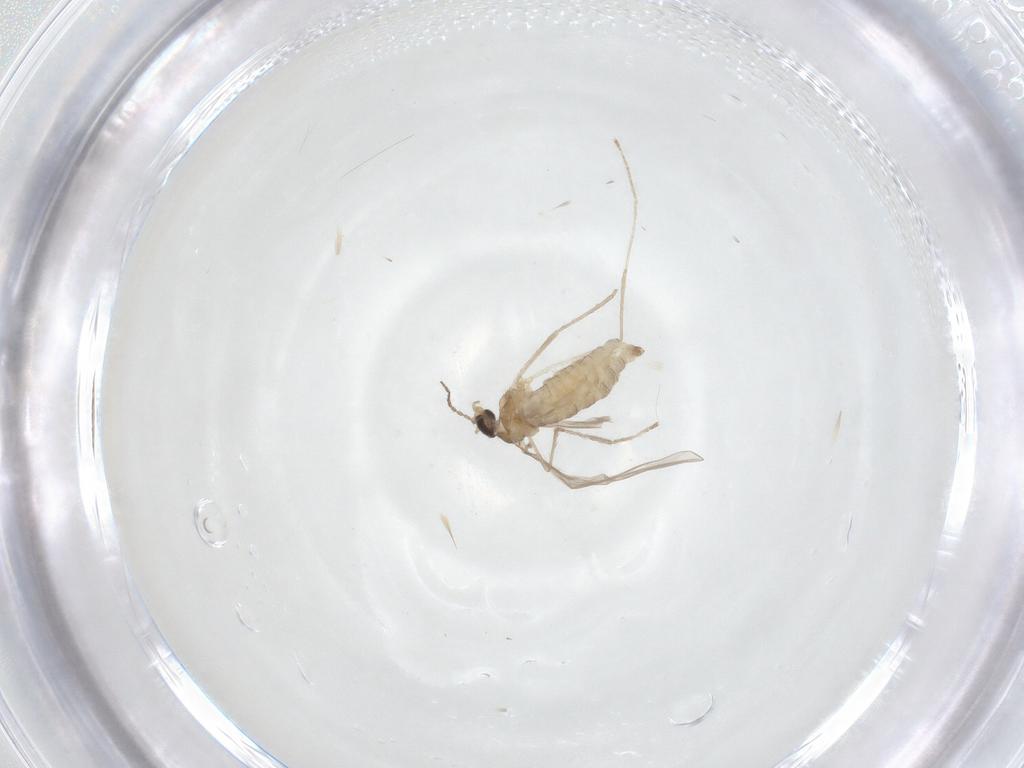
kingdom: Animalia
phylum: Arthropoda
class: Insecta
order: Diptera
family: Cecidomyiidae
